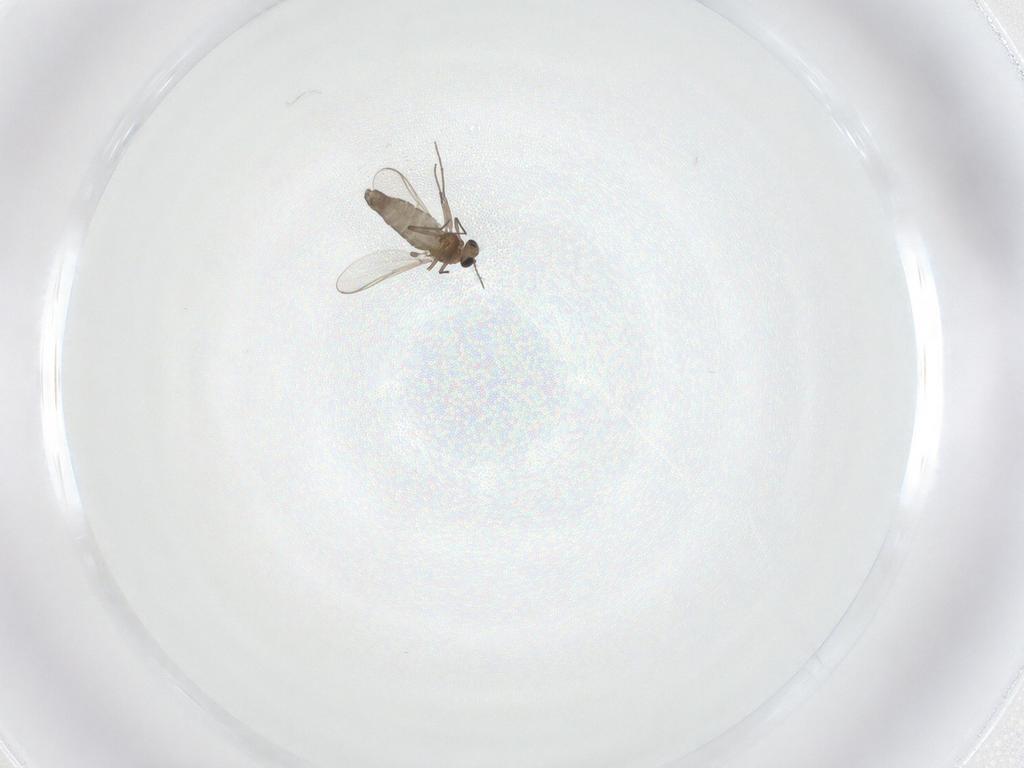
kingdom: Animalia
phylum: Arthropoda
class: Insecta
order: Diptera
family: Chironomidae
